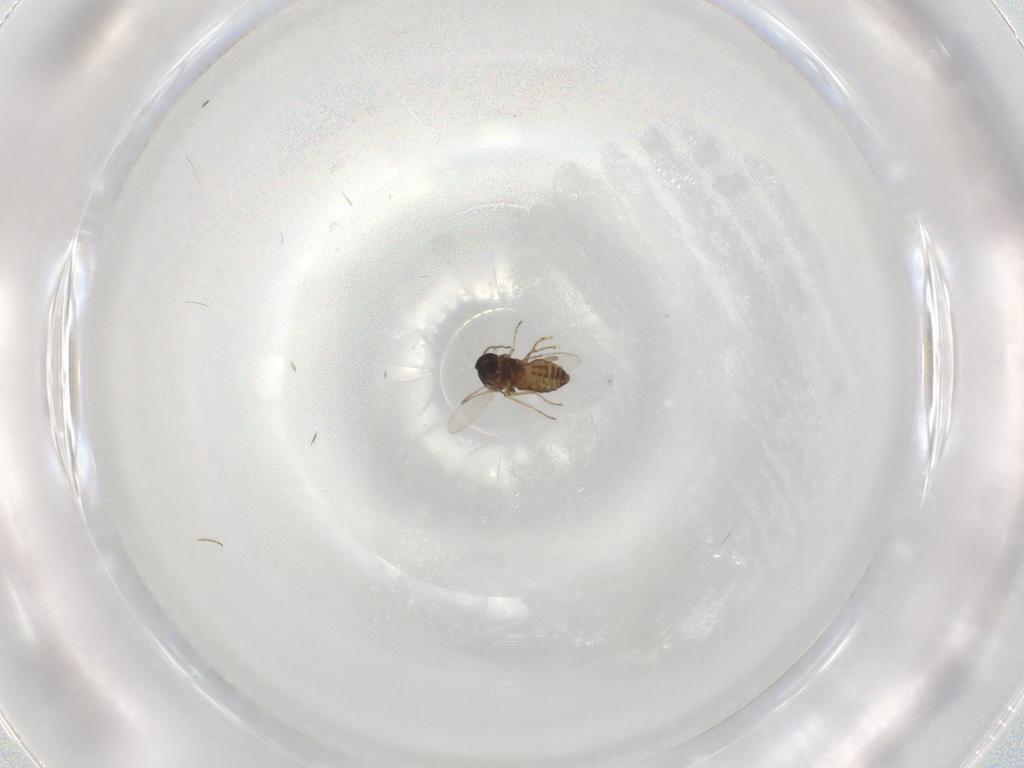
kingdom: Animalia
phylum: Arthropoda
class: Insecta
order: Diptera
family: Ceratopogonidae
